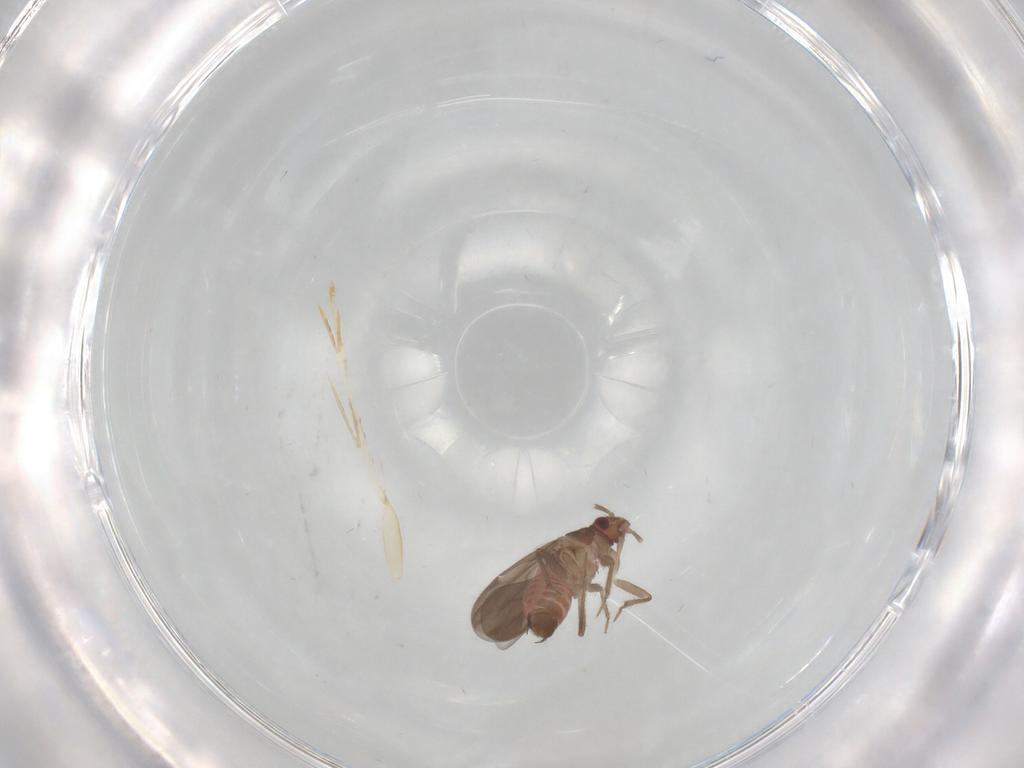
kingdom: Animalia
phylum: Arthropoda
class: Insecta
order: Hemiptera
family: Ceratocombidae
